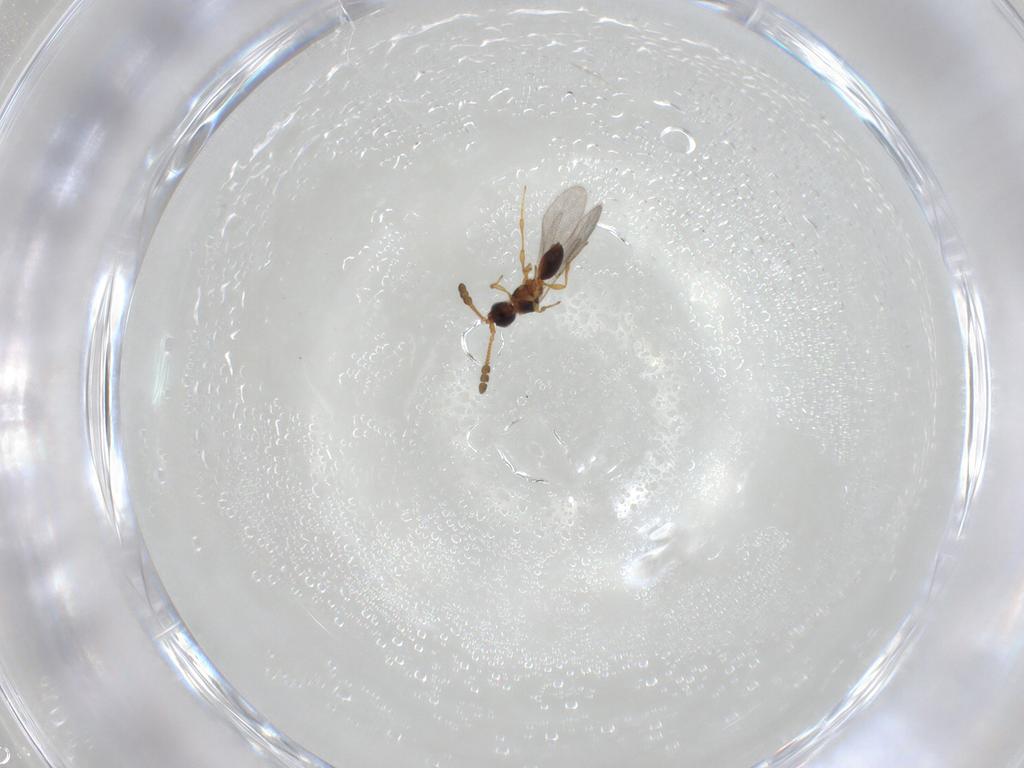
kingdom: Animalia
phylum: Arthropoda
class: Insecta
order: Hymenoptera
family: Diapriidae
